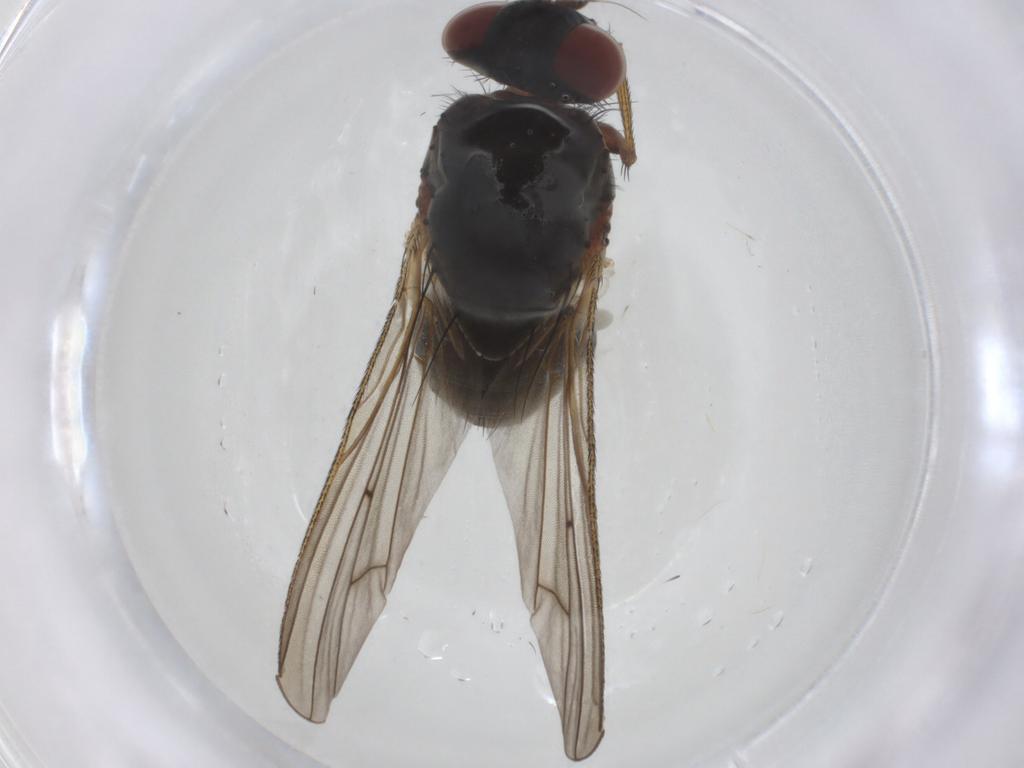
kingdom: Animalia
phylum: Arthropoda
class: Insecta
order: Diptera
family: Anthomyiidae
